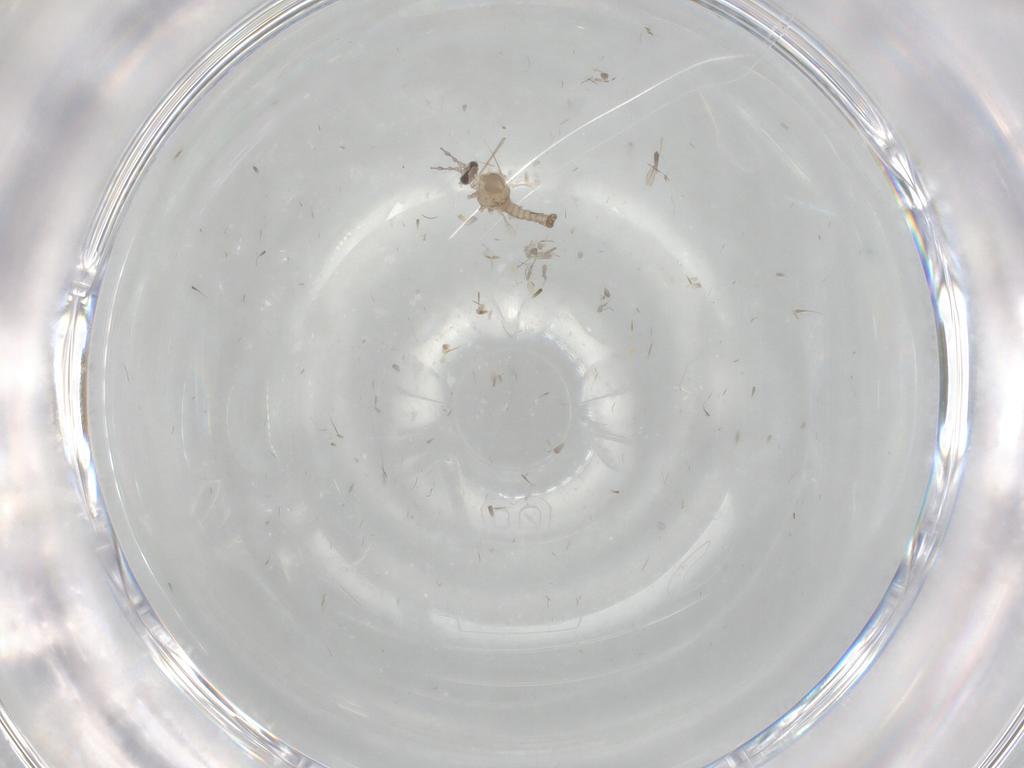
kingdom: Animalia
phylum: Arthropoda
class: Insecta
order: Diptera
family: Cecidomyiidae
